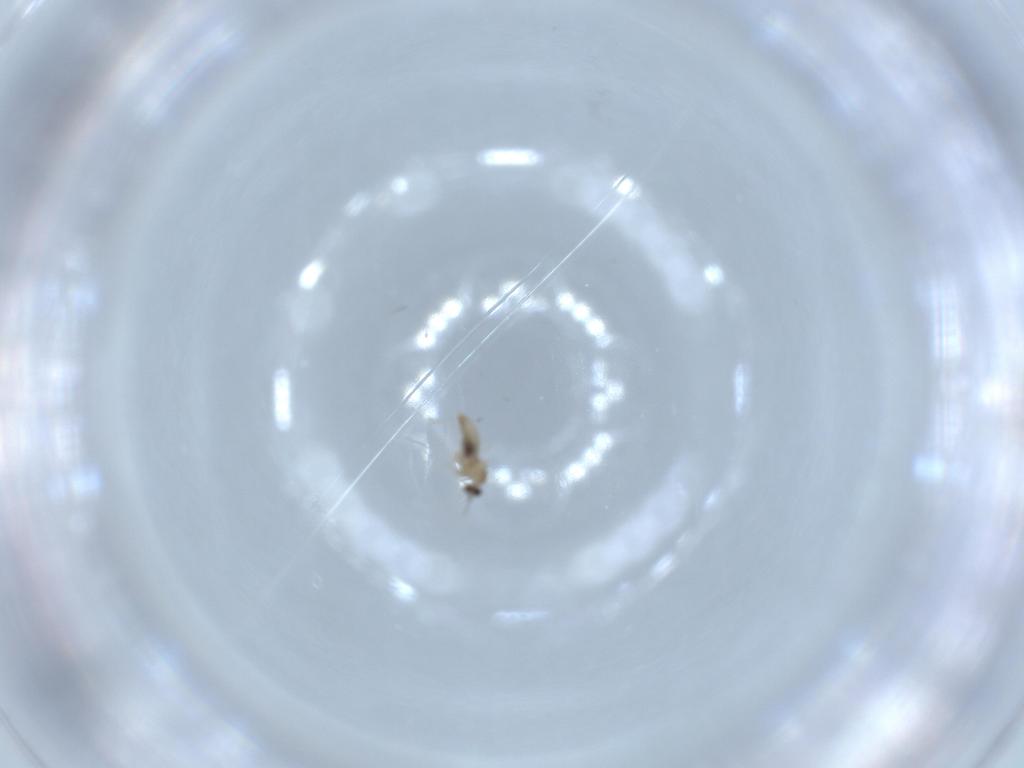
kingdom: Animalia
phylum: Arthropoda
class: Insecta
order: Diptera
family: Cecidomyiidae
